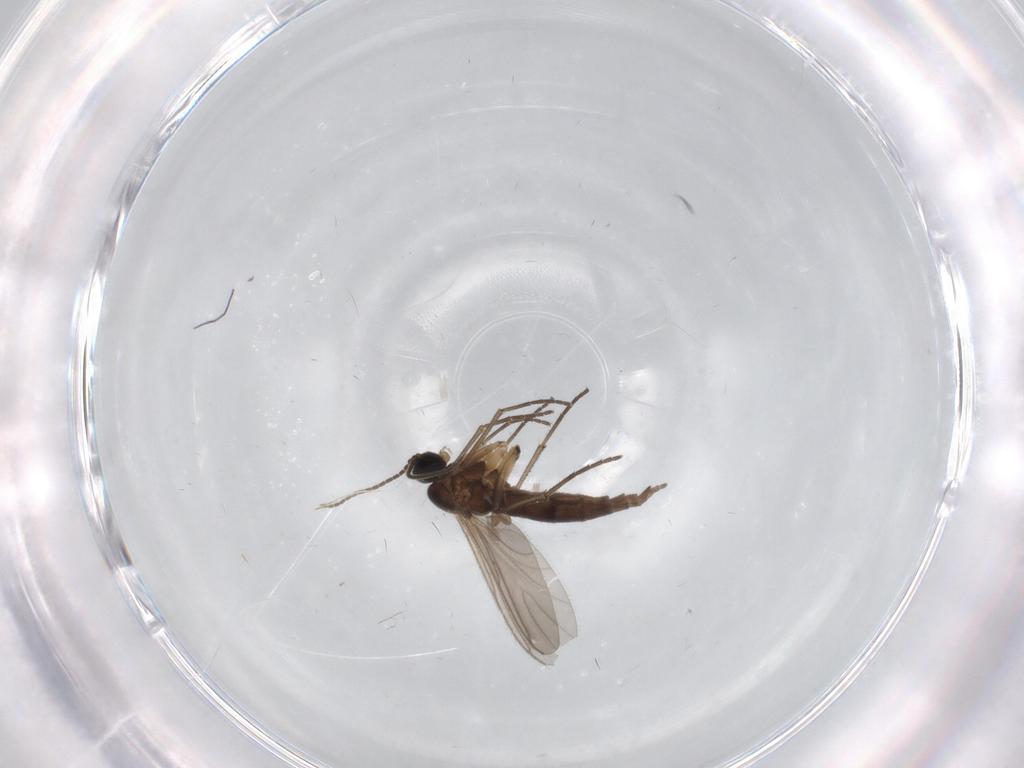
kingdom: Animalia
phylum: Arthropoda
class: Insecta
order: Diptera
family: Sciaridae
